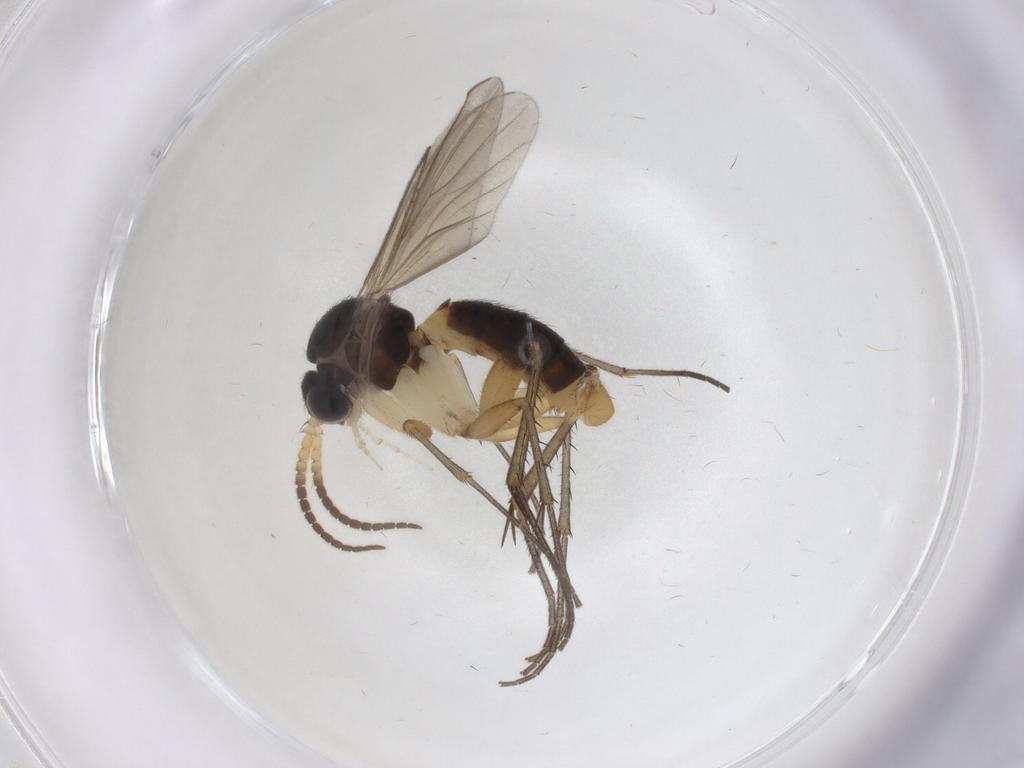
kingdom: Animalia
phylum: Arthropoda
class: Insecta
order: Diptera
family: Mycetophilidae
